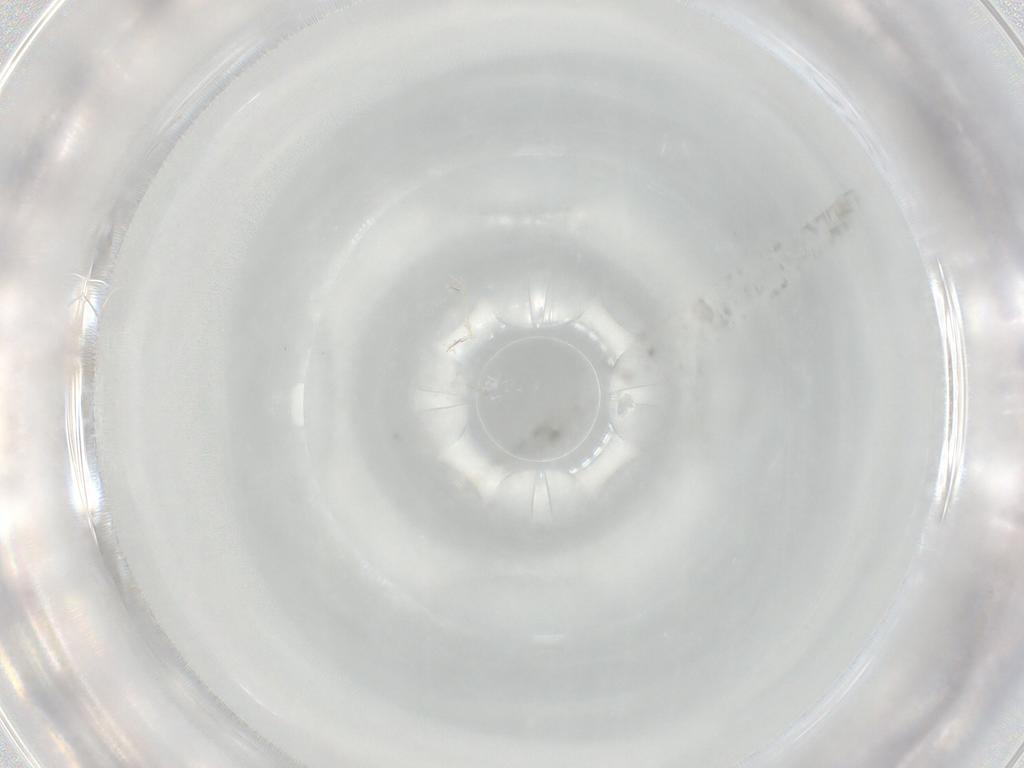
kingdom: Animalia
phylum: Arthropoda
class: Collembola
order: Entomobryomorpha
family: Entomobryidae
